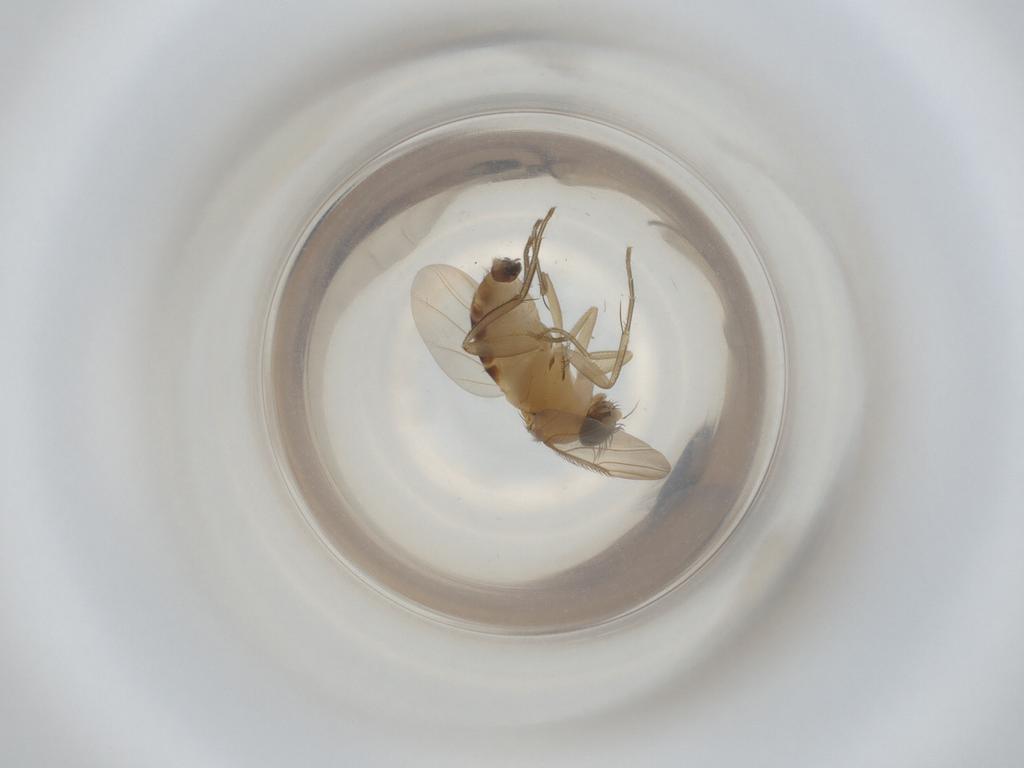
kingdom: Animalia
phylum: Arthropoda
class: Insecta
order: Diptera
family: Phoridae
